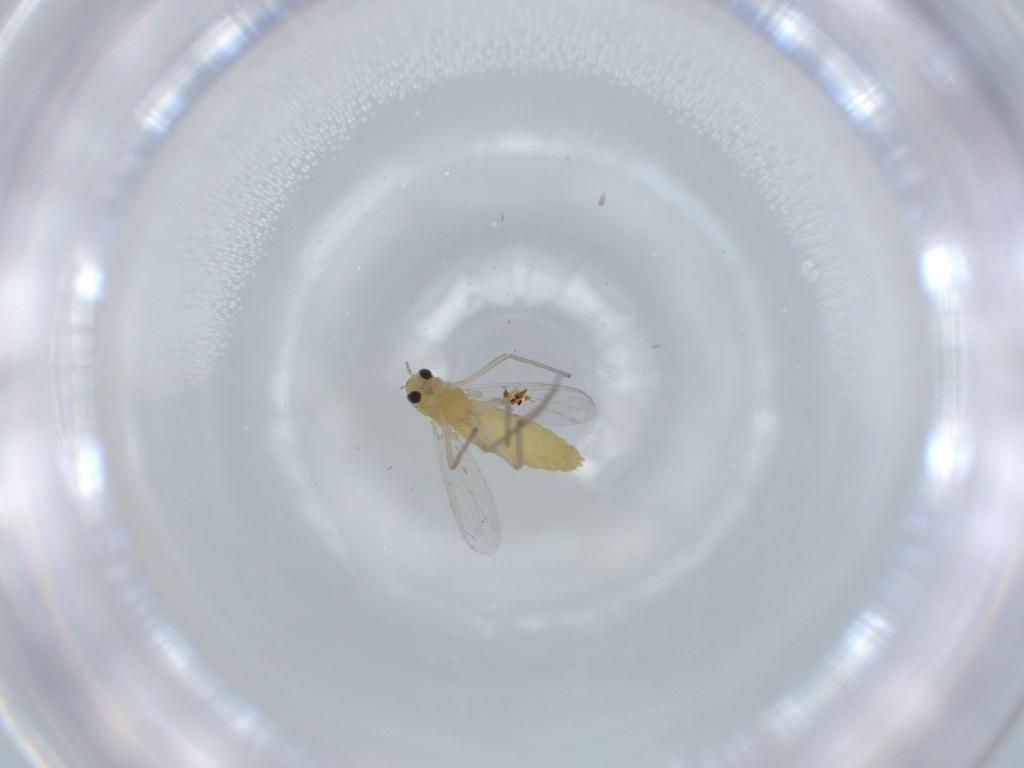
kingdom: Animalia
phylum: Arthropoda
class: Insecta
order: Diptera
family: Chironomidae
